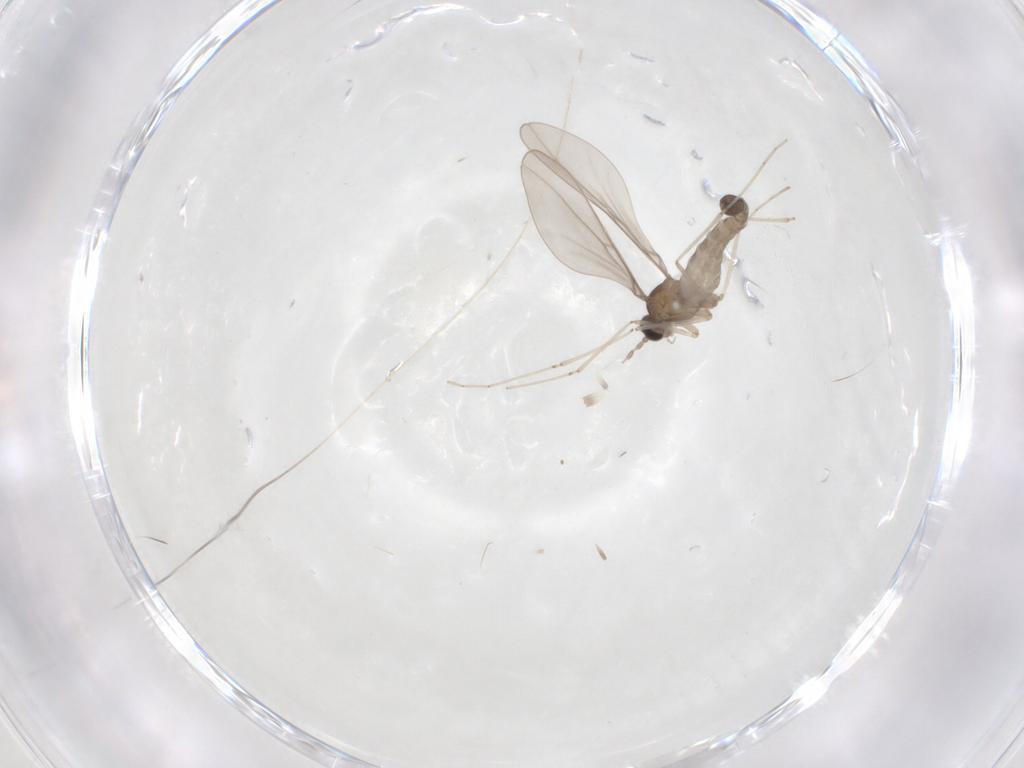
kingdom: Animalia
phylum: Arthropoda
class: Insecta
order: Diptera
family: Cecidomyiidae
